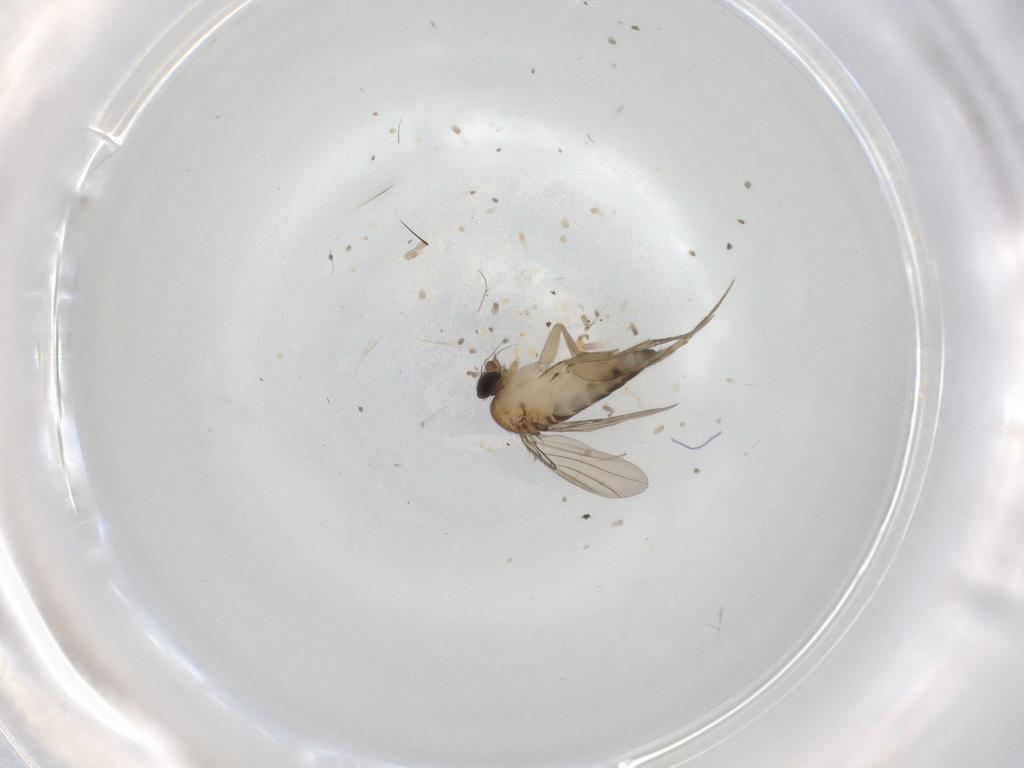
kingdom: Animalia
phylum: Arthropoda
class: Insecta
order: Diptera
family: Phoridae
